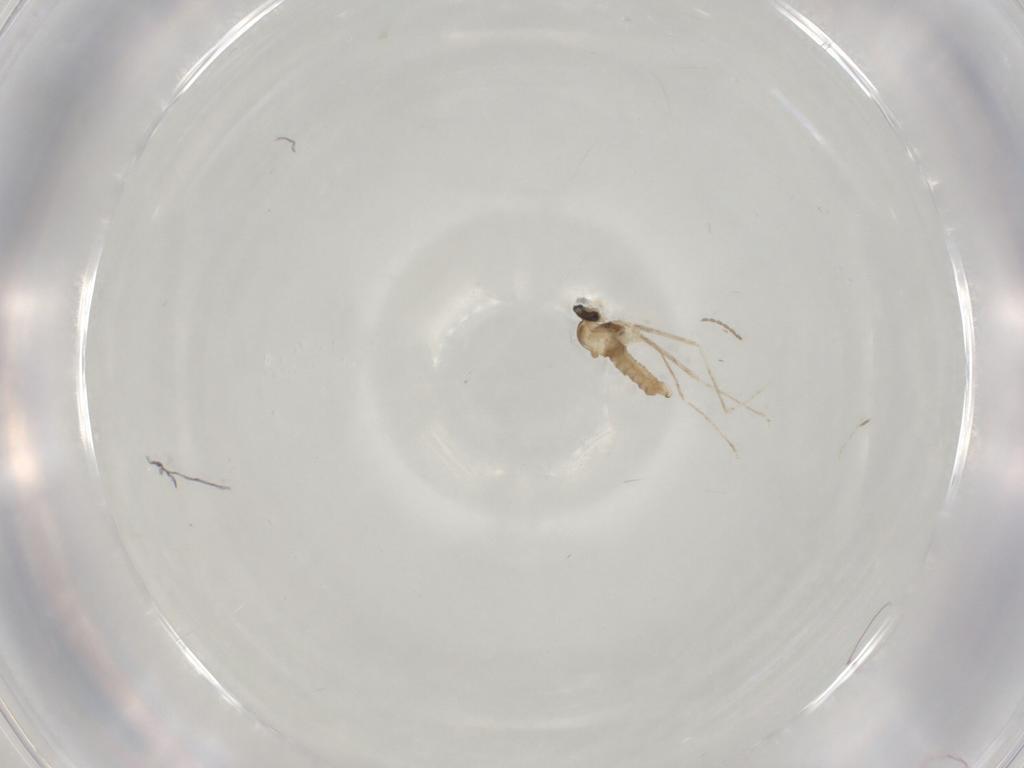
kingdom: Animalia
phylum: Arthropoda
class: Insecta
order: Diptera
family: Cecidomyiidae
